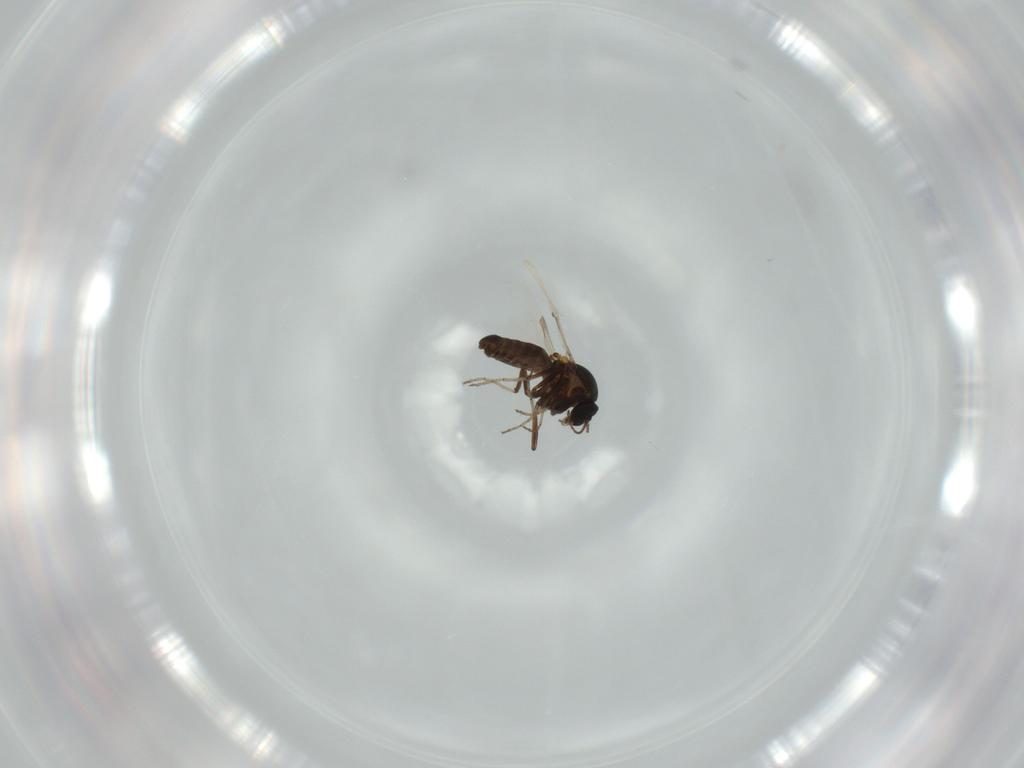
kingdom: Animalia
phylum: Arthropoda
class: Insecta
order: Diptera
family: Ceratopogonidae
